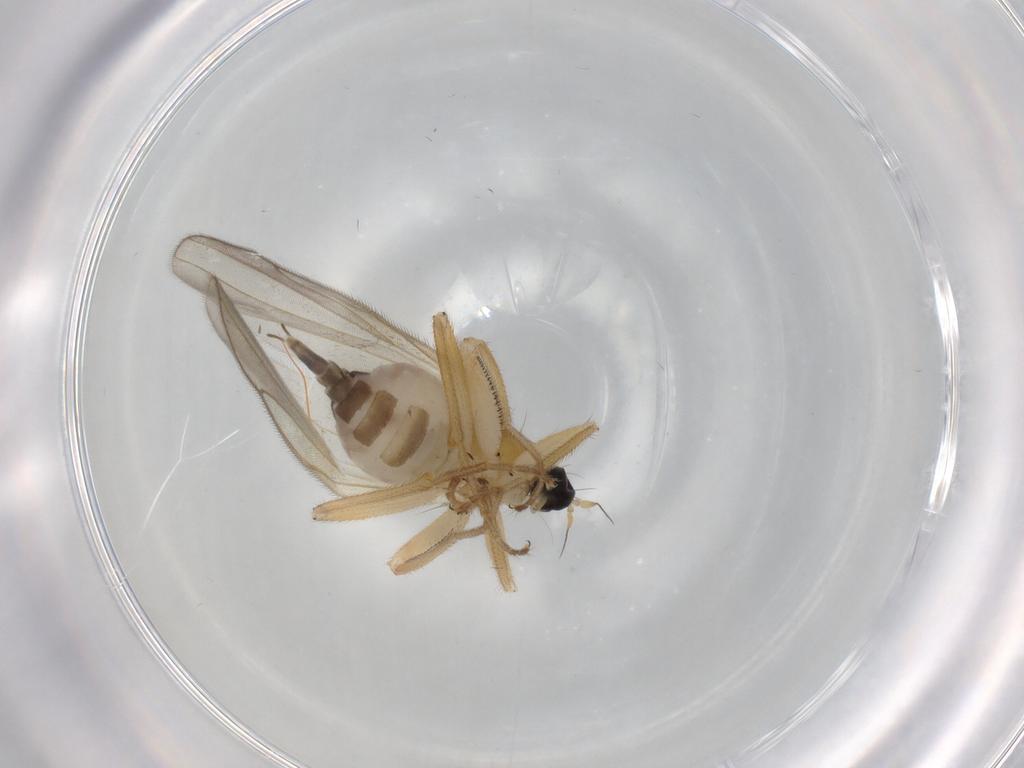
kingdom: Animalia
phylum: Arthropoda
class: Insecta
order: Diptera
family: Hybotidae
